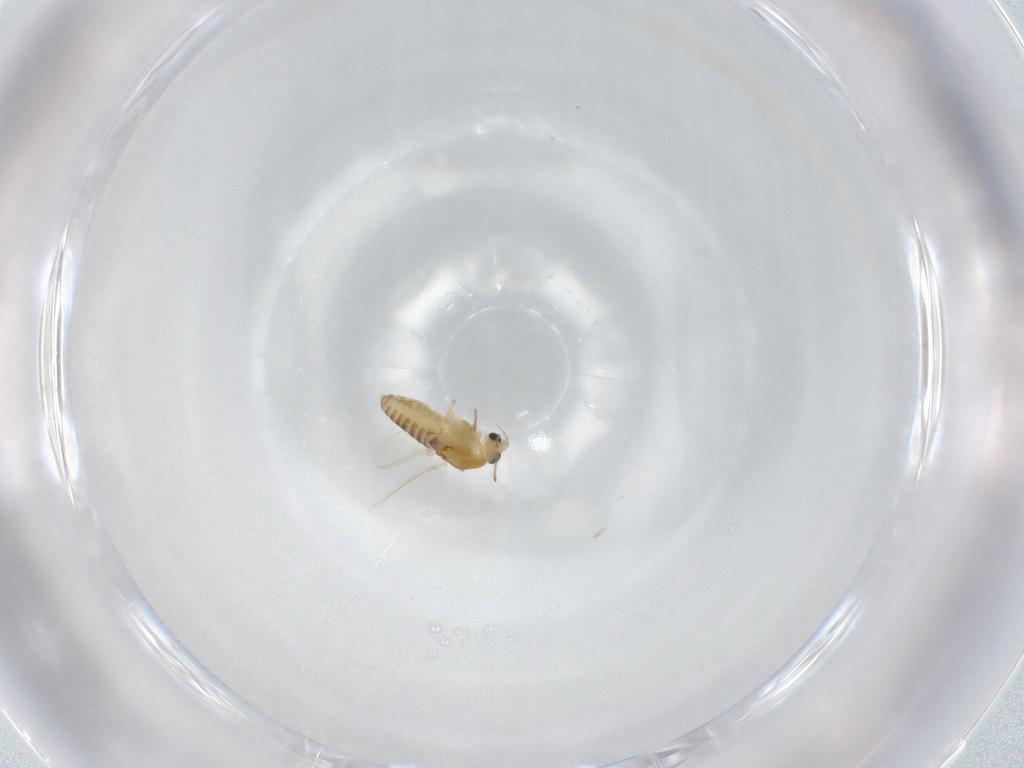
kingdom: Animalia
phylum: Arthropoda
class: Insecta
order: Diptera
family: Chironomidae
